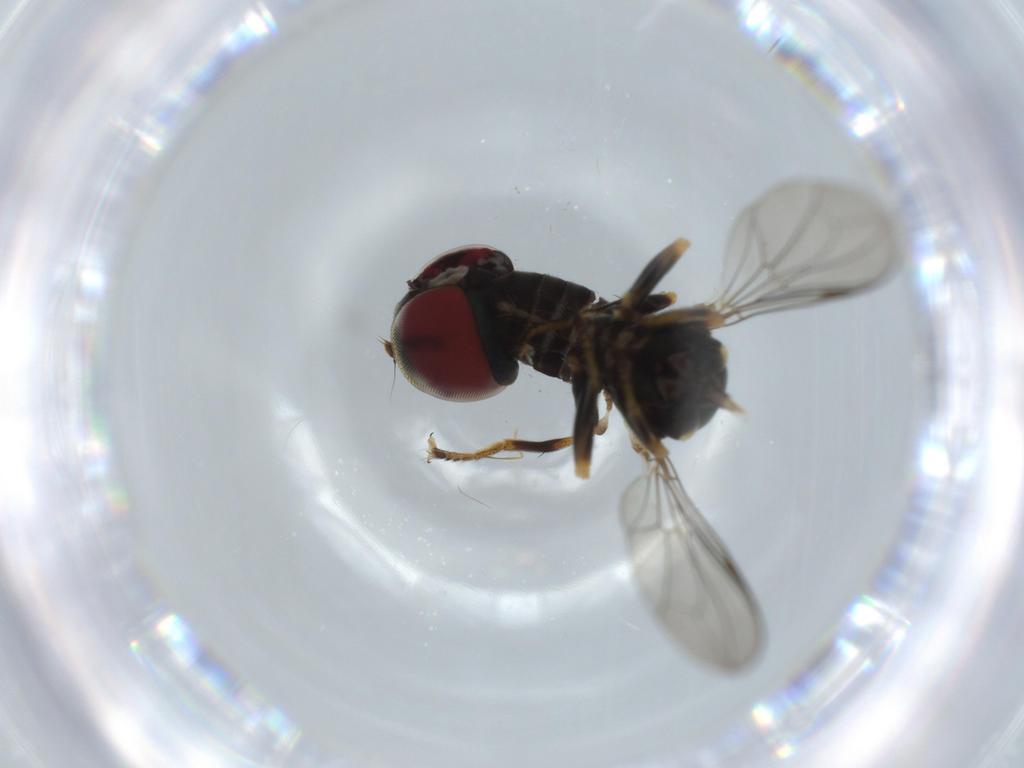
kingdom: Animalia
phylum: Arthropoda
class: Insecta
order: Diptera
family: Pipunculidae
